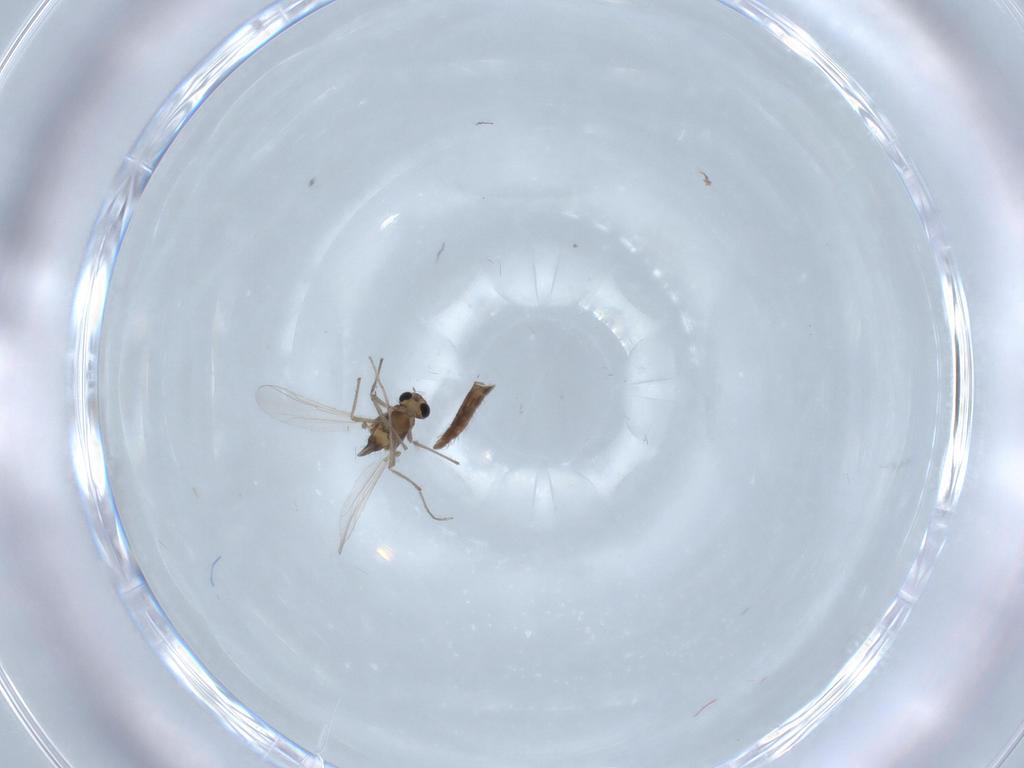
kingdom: Animalia
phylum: Arthropoda
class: Insecta
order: Diptera
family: Chironomidae
